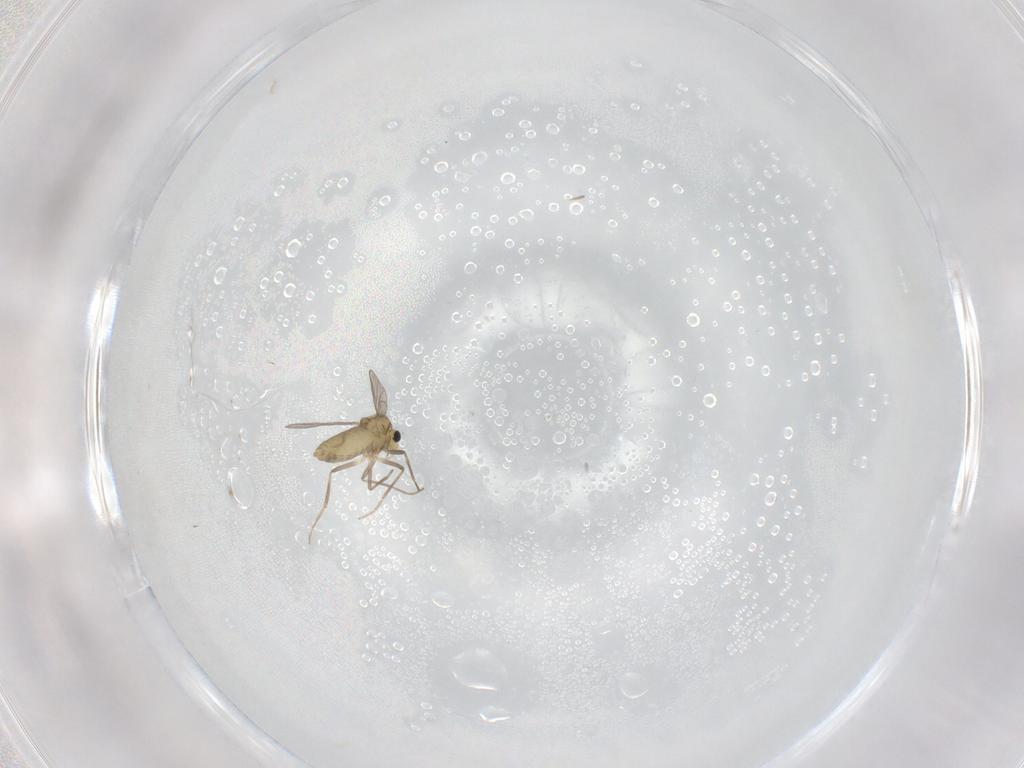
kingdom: Animalia
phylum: Arthropoda
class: Insecta
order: Diptera
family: Chironomidae
